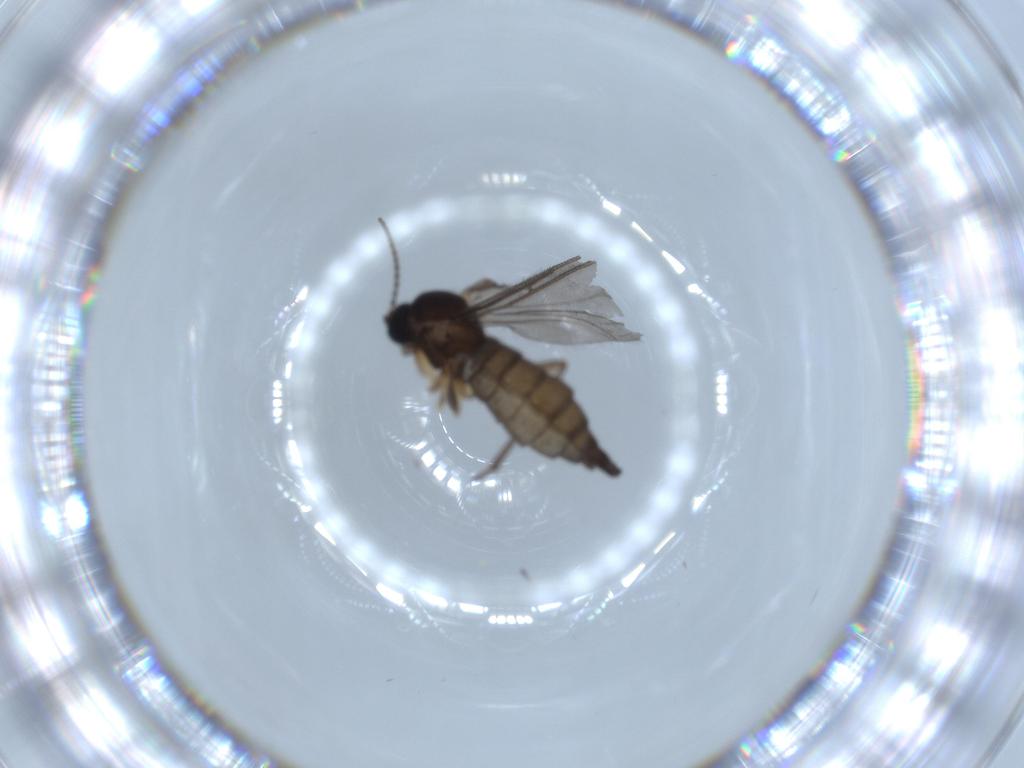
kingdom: Animalia
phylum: Arthropoda
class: Insecta
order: Diptera
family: Sciaridae
